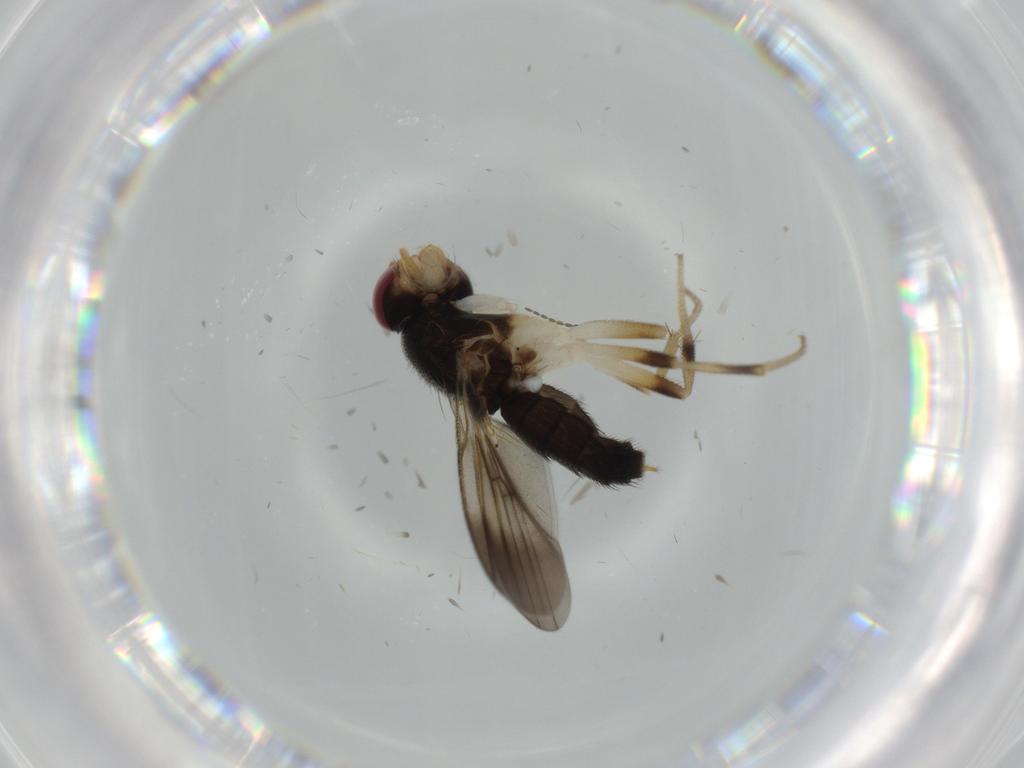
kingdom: Animalia
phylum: Arthropoda
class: Insecta
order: Diptera
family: Clusiidae
